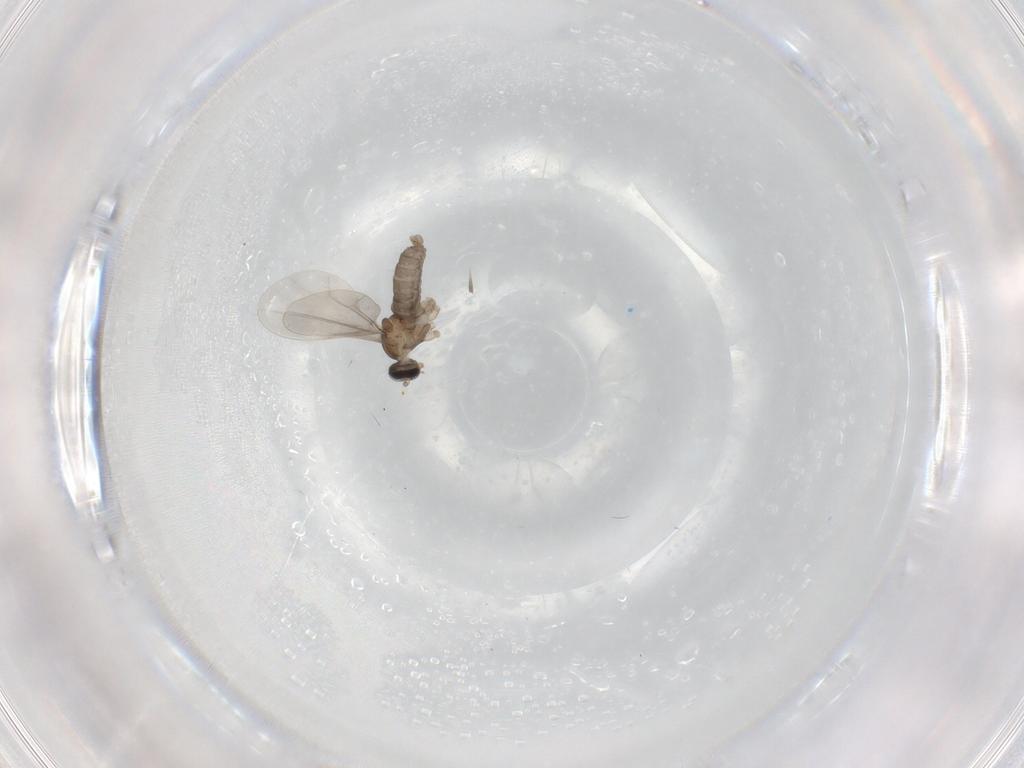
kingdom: Animalia
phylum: Arthropoda
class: Insecta
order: Diptera
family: Cecidomyiidae
